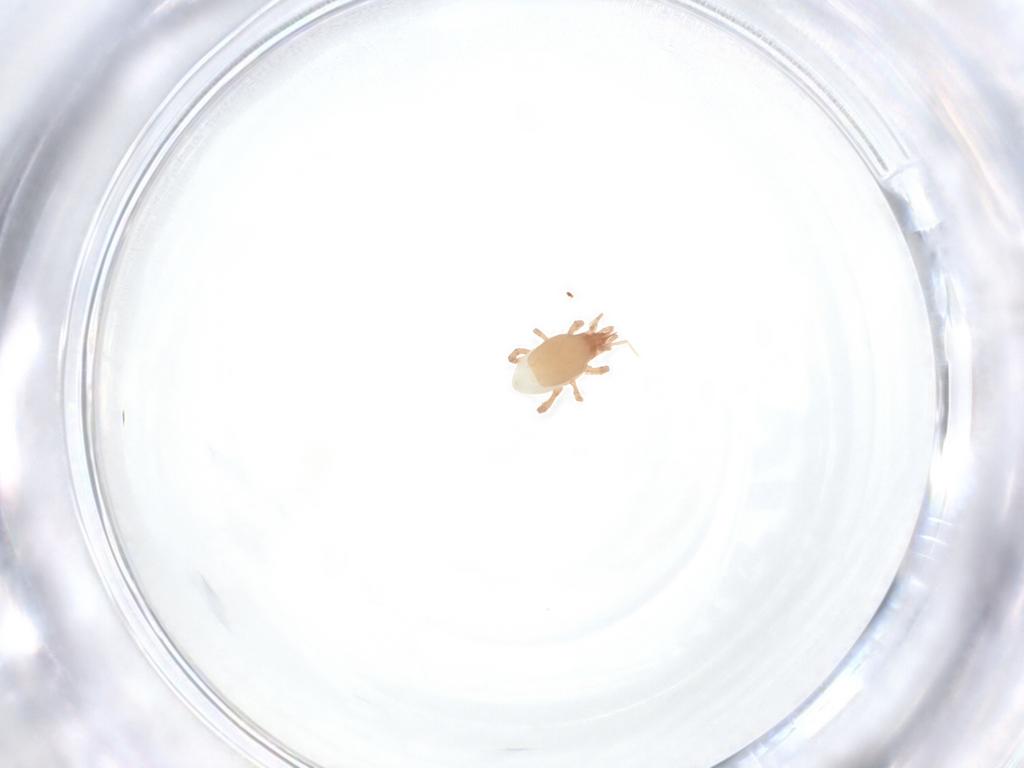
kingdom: Animalia
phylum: Arthropoda
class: Arachnida
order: Mesostigmata
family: Arctacaridae
